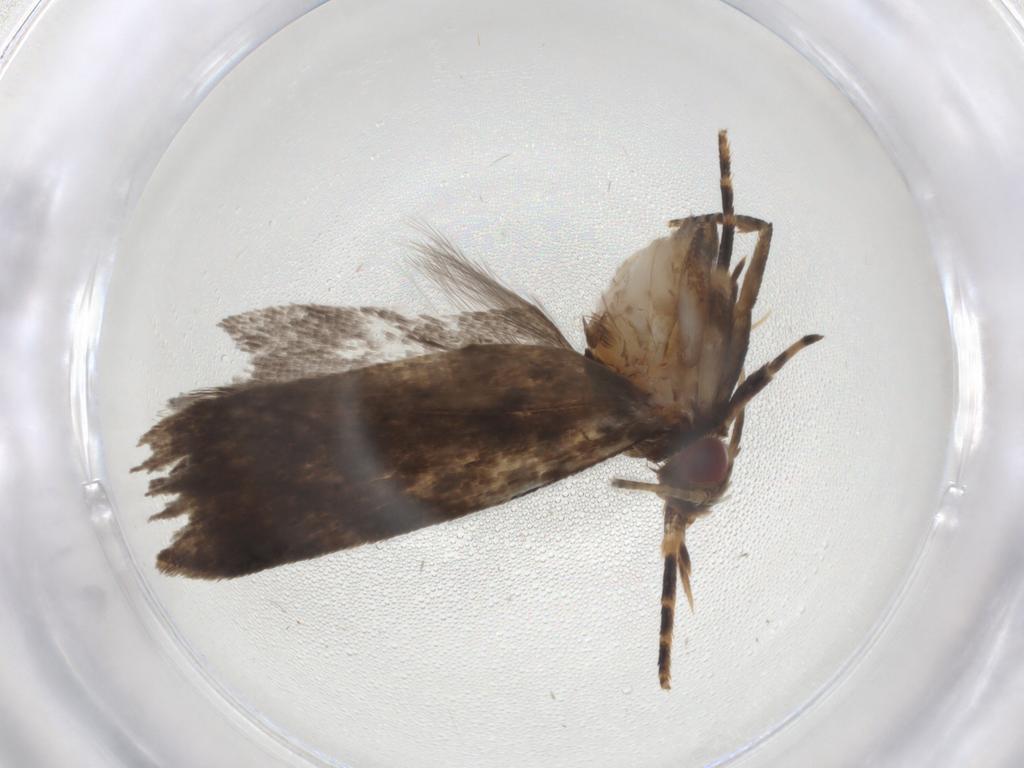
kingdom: Animalia
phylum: Arthropoda
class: Insecta
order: Lepidoptera
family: Gelechiidae
